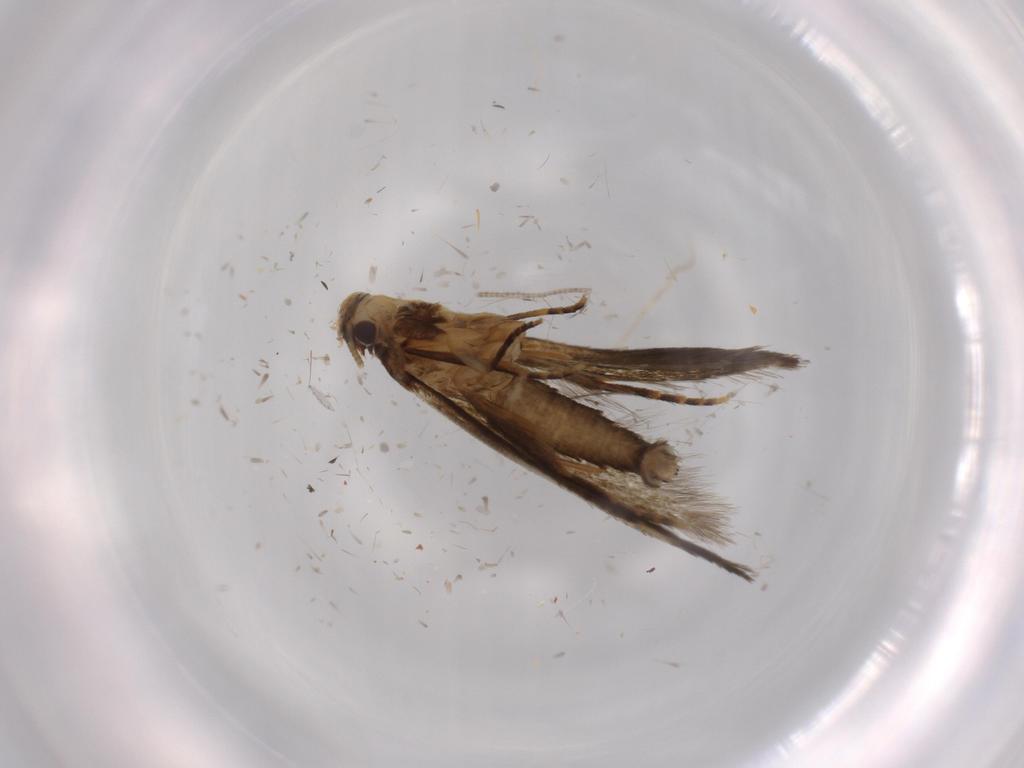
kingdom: Animalia
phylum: Arthropoda
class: Insecta
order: Lepidoptera
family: Tineidae
